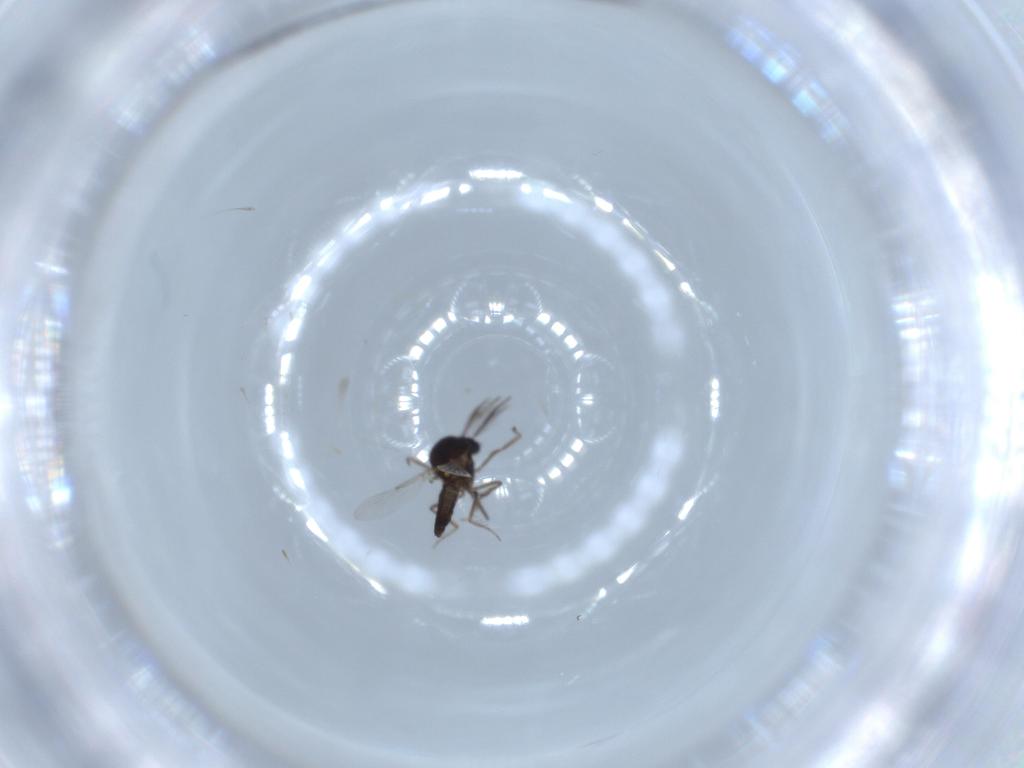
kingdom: Animalia
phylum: Arthropoda
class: Insecta
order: Diptera
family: Ceratopogonidae
